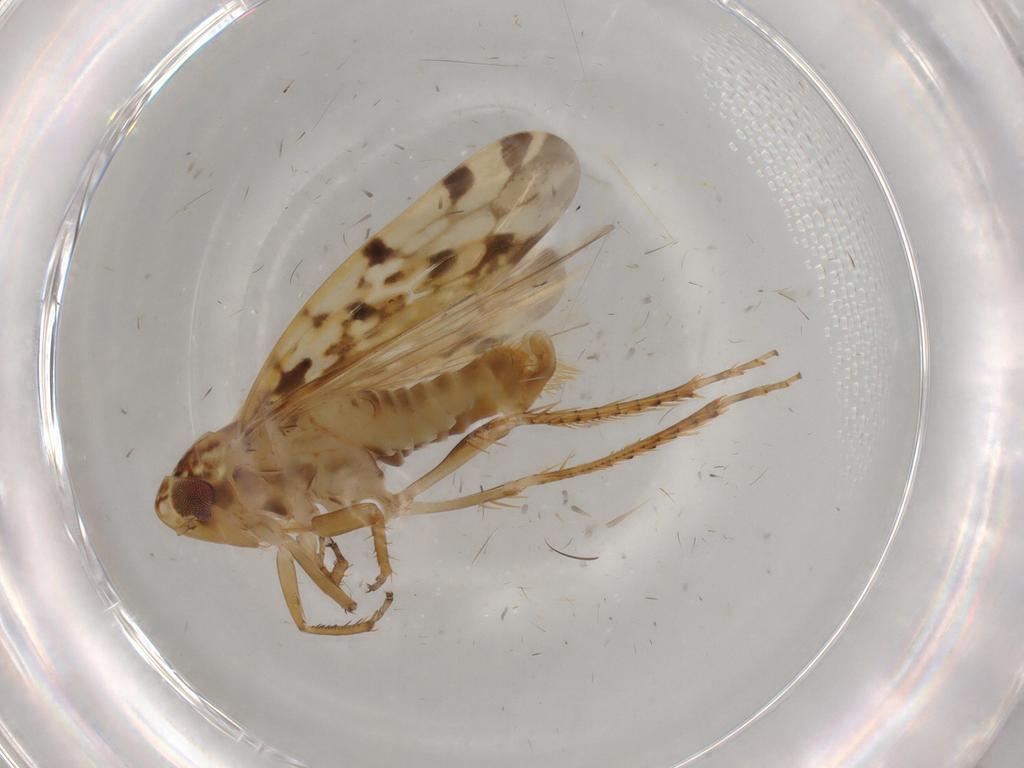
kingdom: Animalia
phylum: Arthropoda
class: Insecta
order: Hemiptera
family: Cicadellidae
